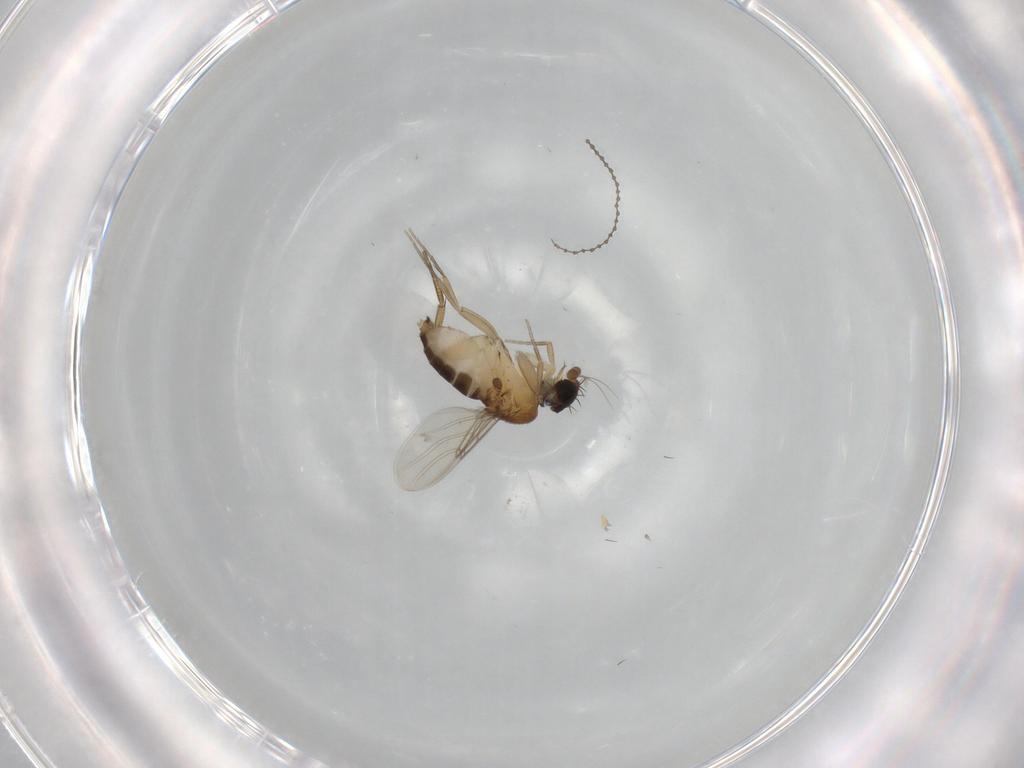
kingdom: Animalia
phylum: Arthropoda
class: Insecta
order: Diptera
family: Phoridae
